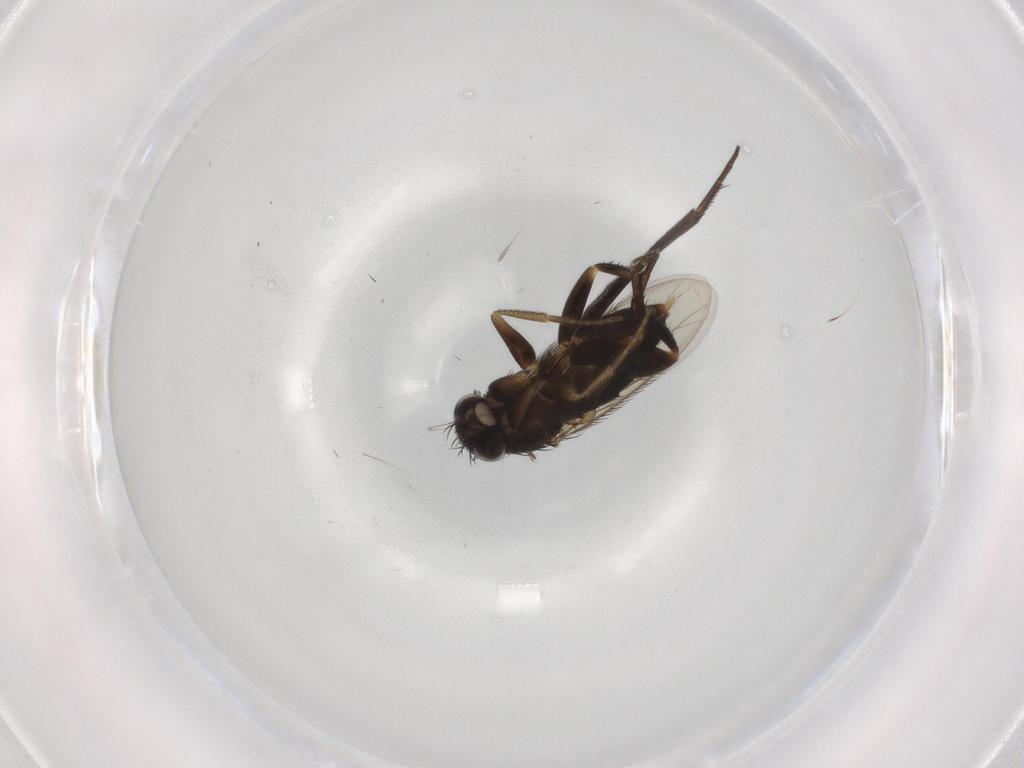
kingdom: Animalia
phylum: Arthropoda
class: Insecta
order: Diptera
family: Phoridae
